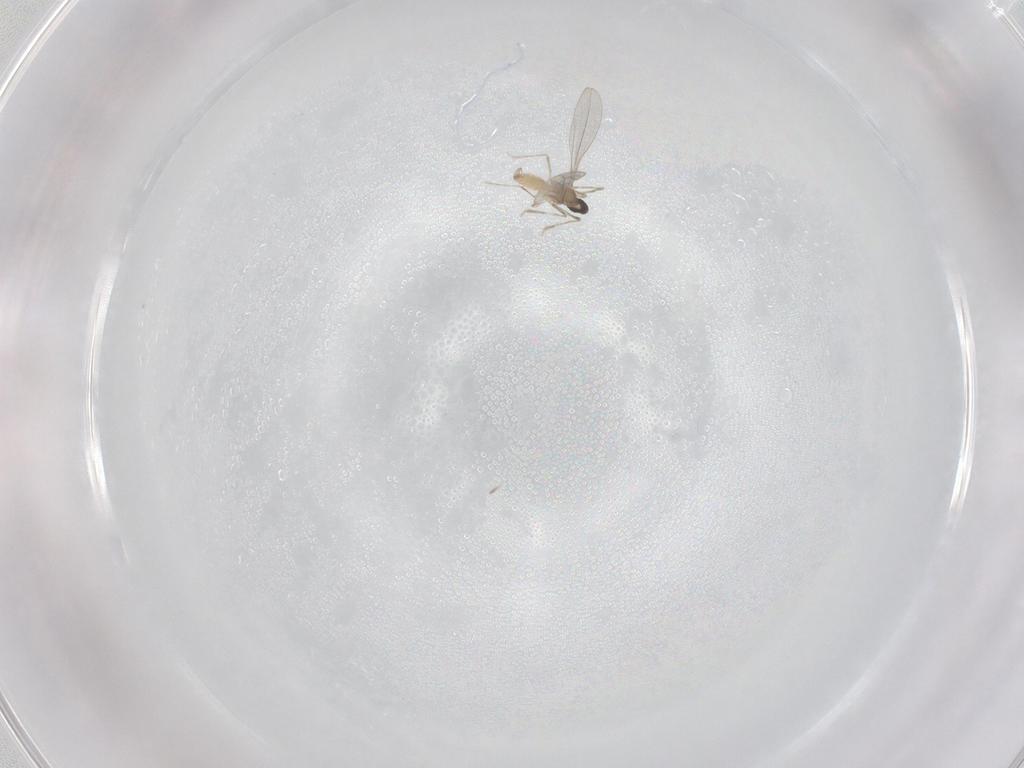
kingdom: Animalia
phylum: Arthropoda
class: Insecta
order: Diptera
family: Cecidomyiidae
